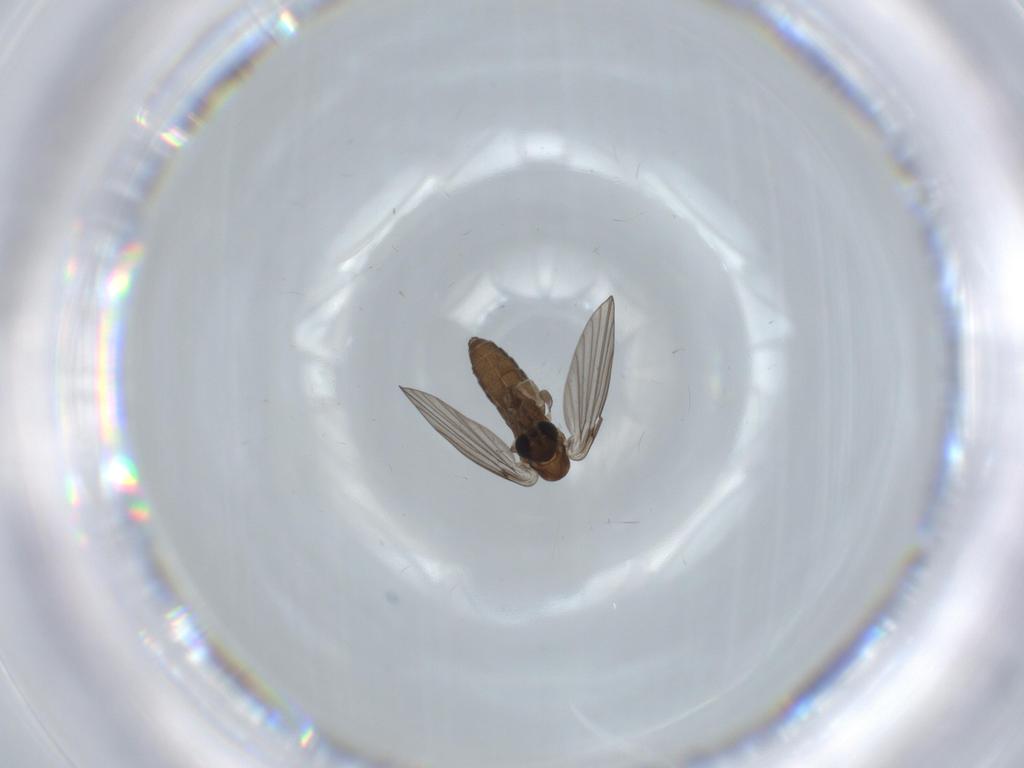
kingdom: Animalia
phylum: Arthropoda
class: Insecta
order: Diptera
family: Psychodidae
